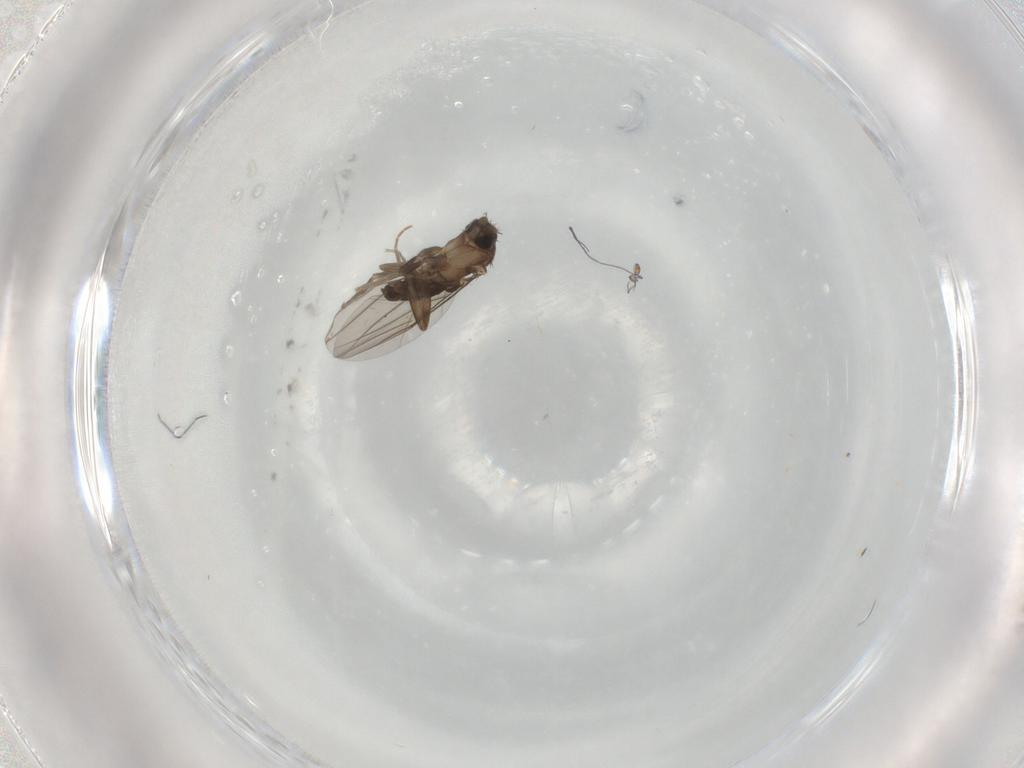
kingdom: Animalia
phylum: Arthropoda
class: Insecta
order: Diptera
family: Phoridae
